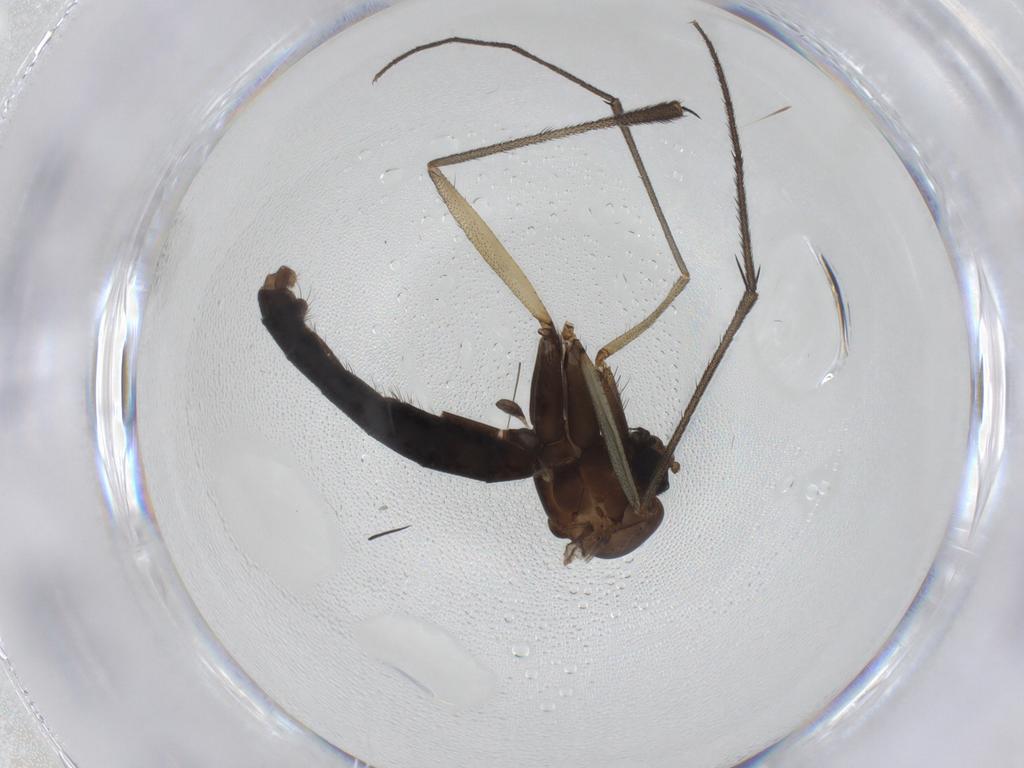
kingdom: Animalia
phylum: Arthropoda
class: Insecta
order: Diptera
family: Ditomyiidae
